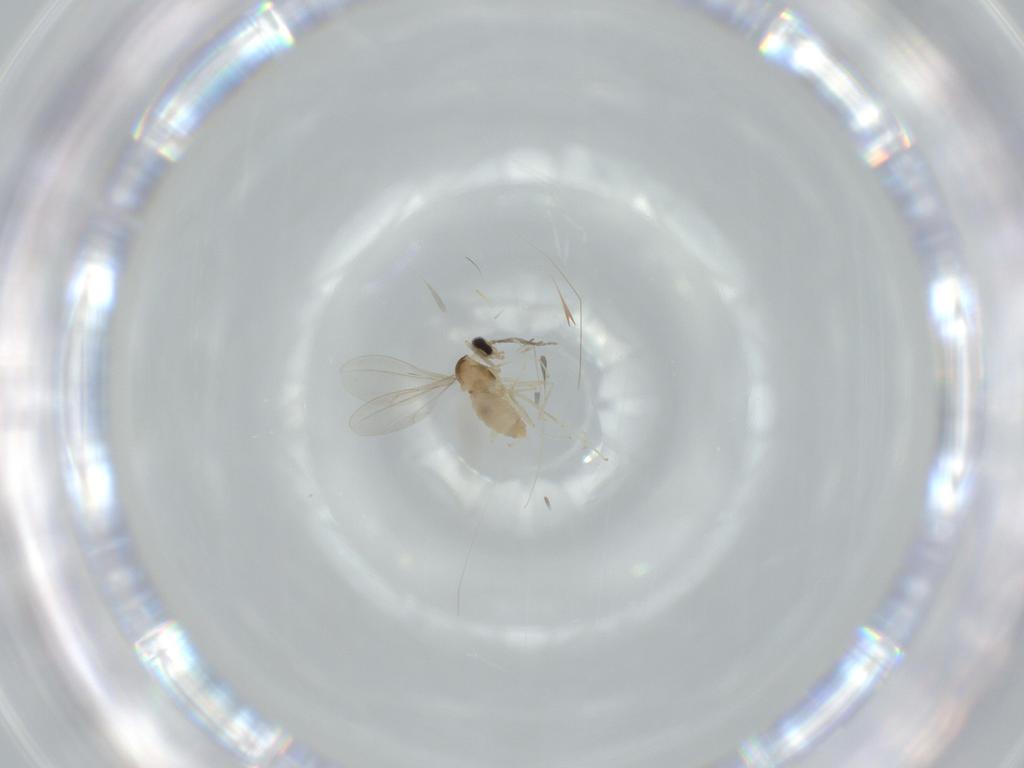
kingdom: Animalia
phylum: Arthropoda
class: Insecta
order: Diptera
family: Cecidomyiidae
